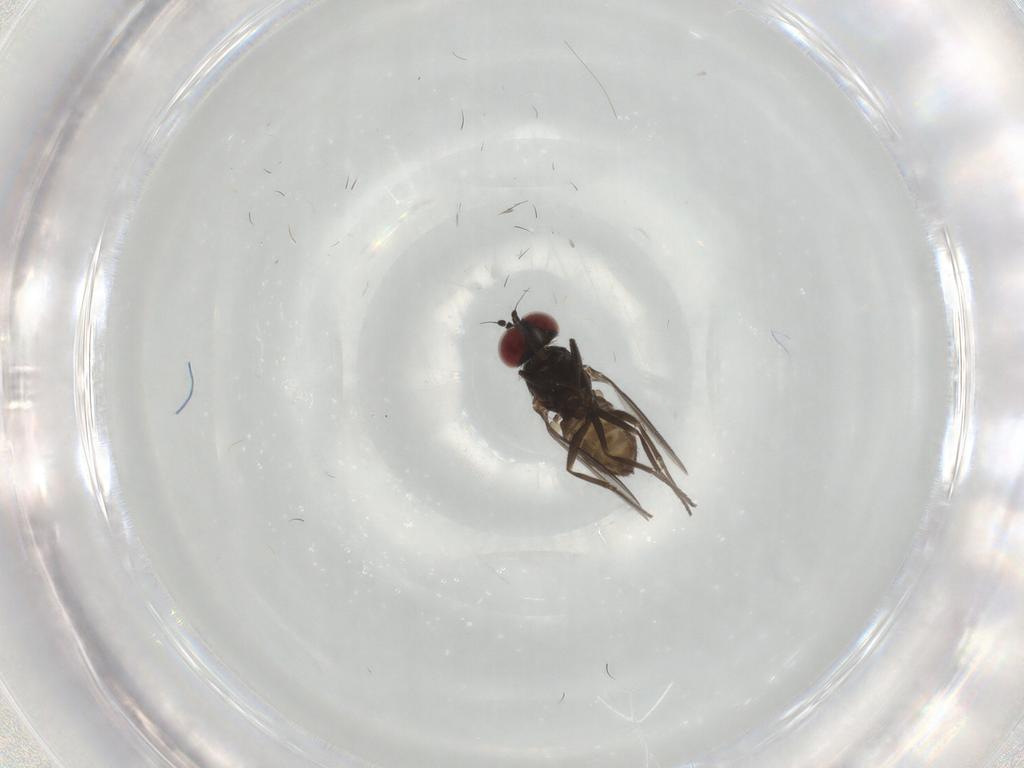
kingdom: Animalia
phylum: Arthropoda
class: Insecta
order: Diptera
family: Dolichopodidae
